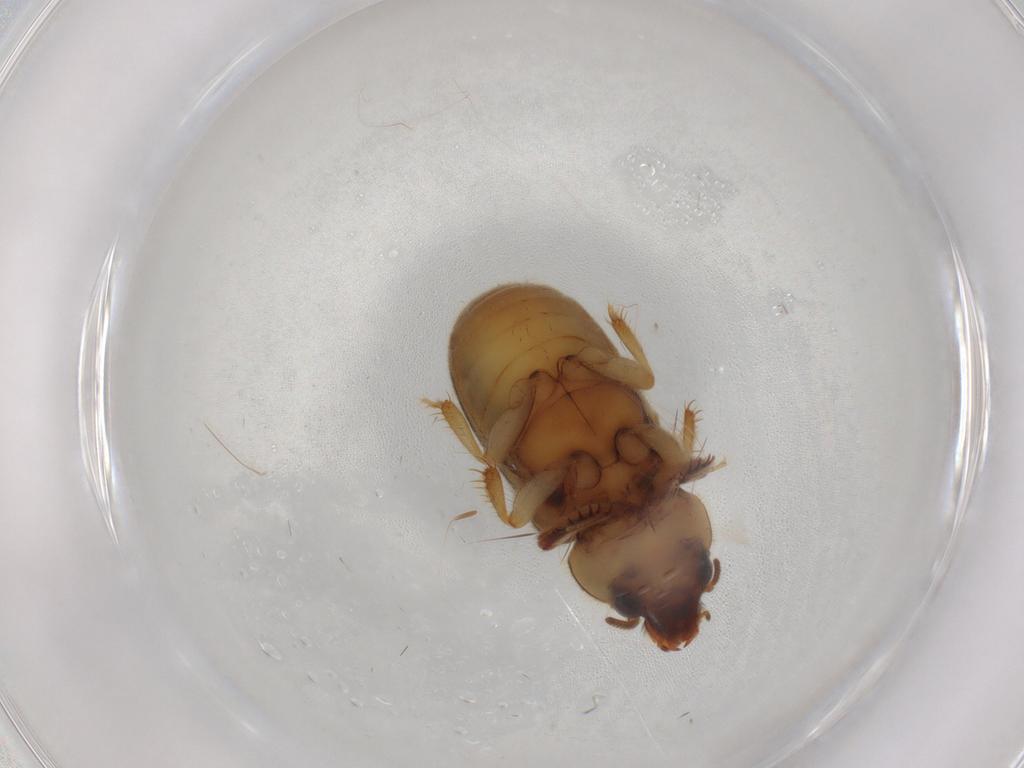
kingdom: Animalia
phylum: Arthropoda
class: Insecta
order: Coleoptera
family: Heteroceridae
